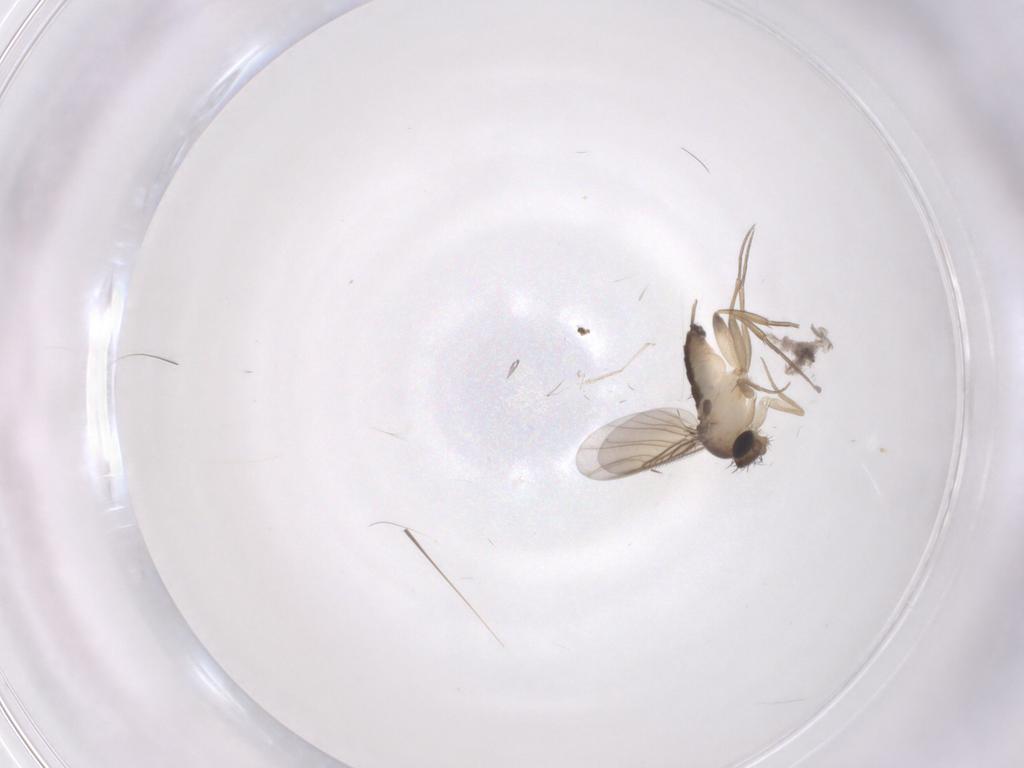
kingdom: Animalia
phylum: Arthropoda
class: Insecta
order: Diptera
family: Phoridae
